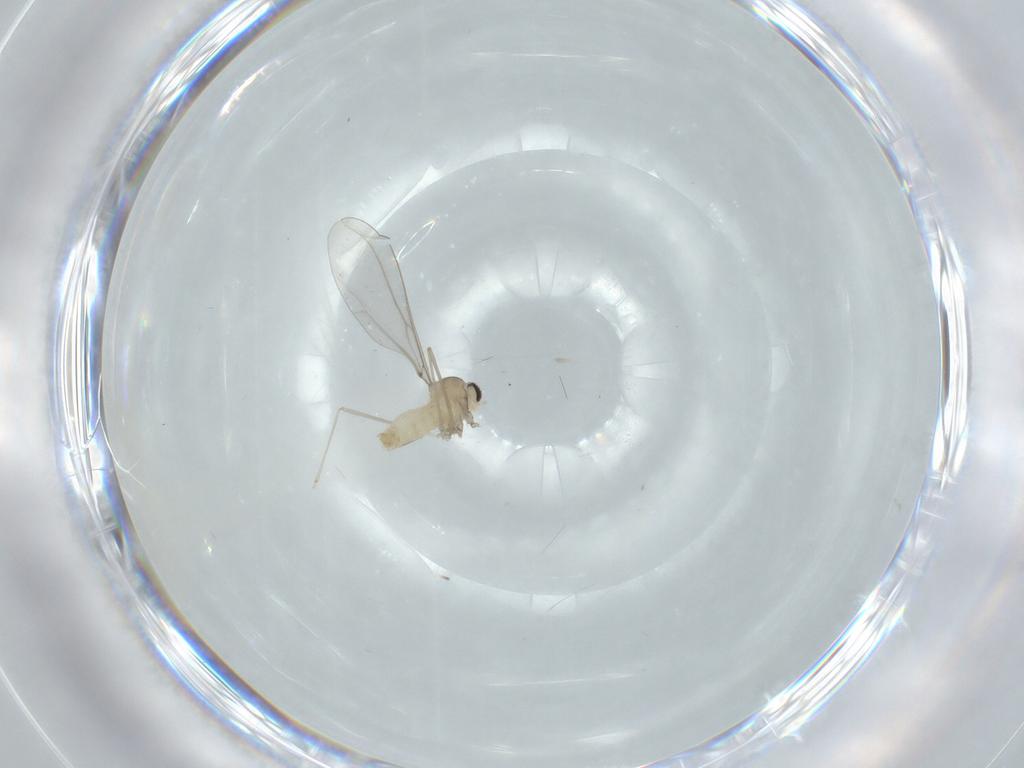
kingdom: Animalia
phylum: Arthropoda
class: Insecta
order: Diptera
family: Cecidomyiidae
